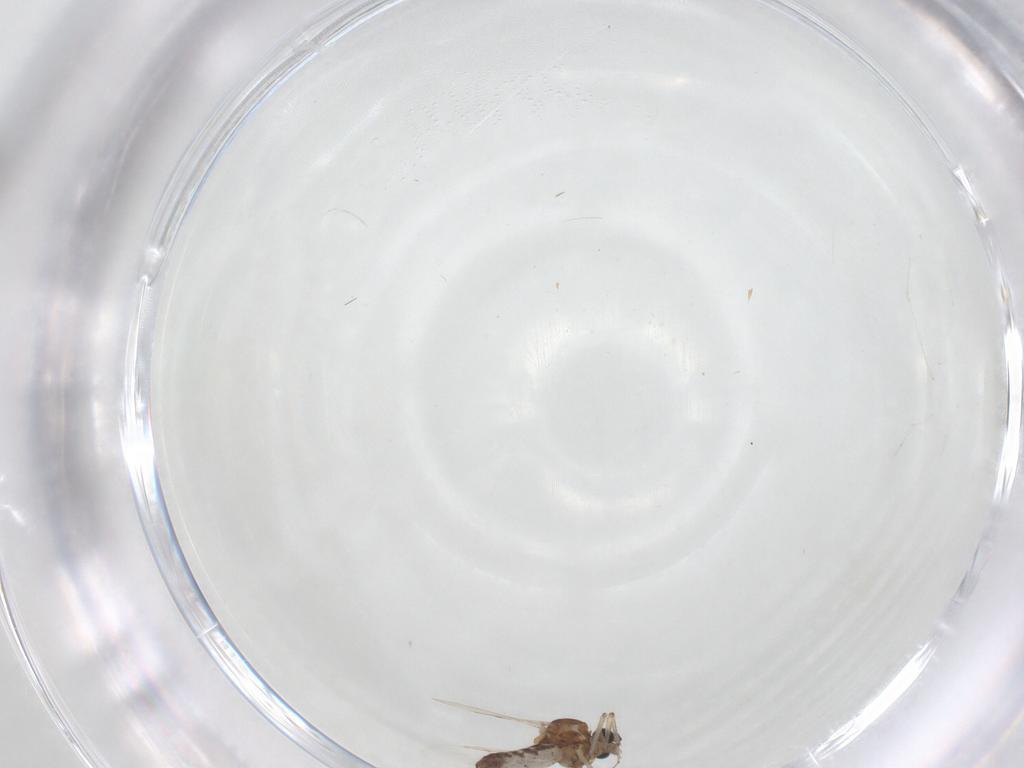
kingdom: Animalia
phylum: Arthropoda
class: Insecta
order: Diptera
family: Ceratopogonidae
